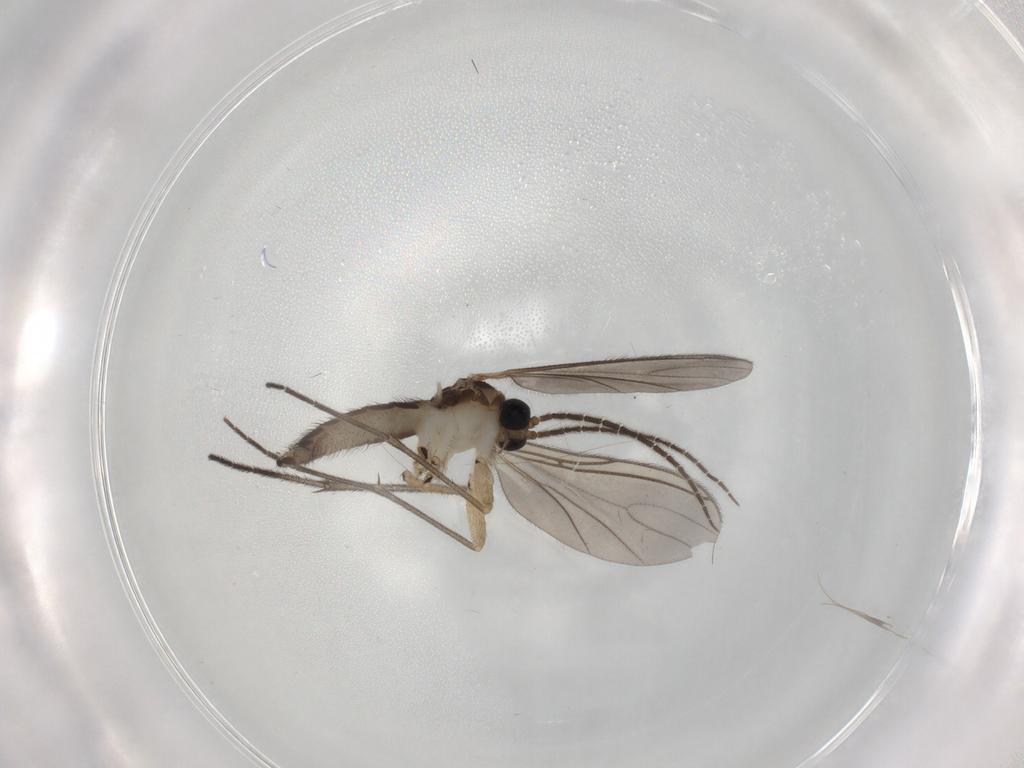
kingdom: Animalia
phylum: Arthropoda
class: Insecta
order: Diptera
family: Sciaridae
